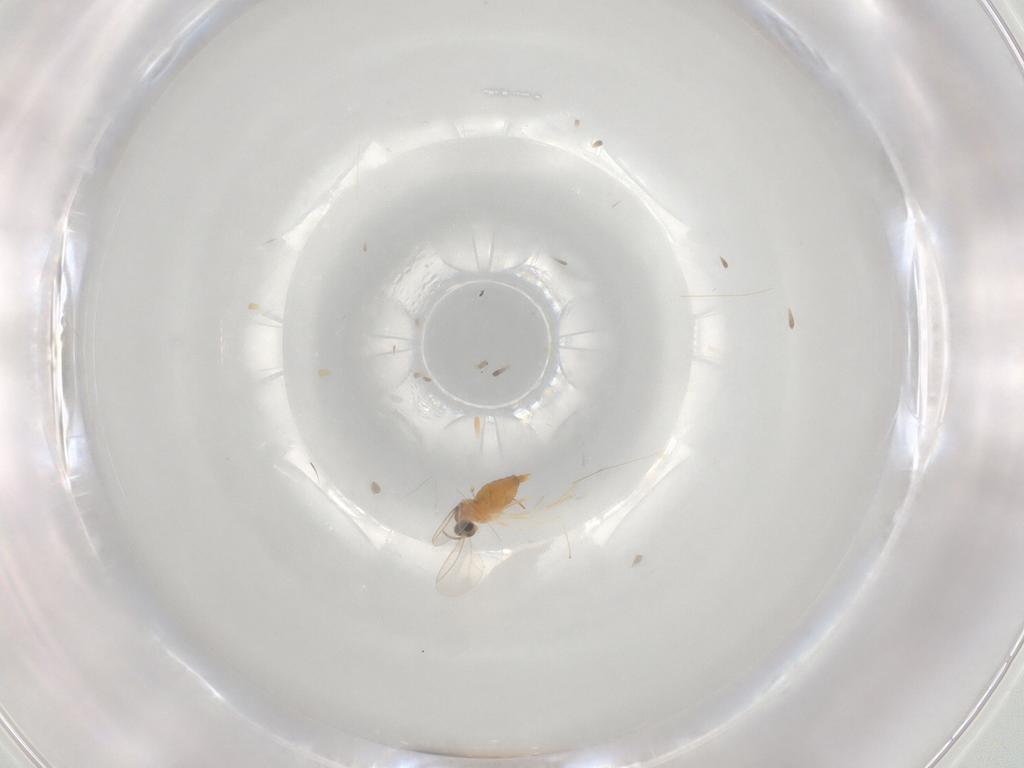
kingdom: Animalia
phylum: Arthropoda
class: Insecta
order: Diptera
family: Cecidomyiidae
